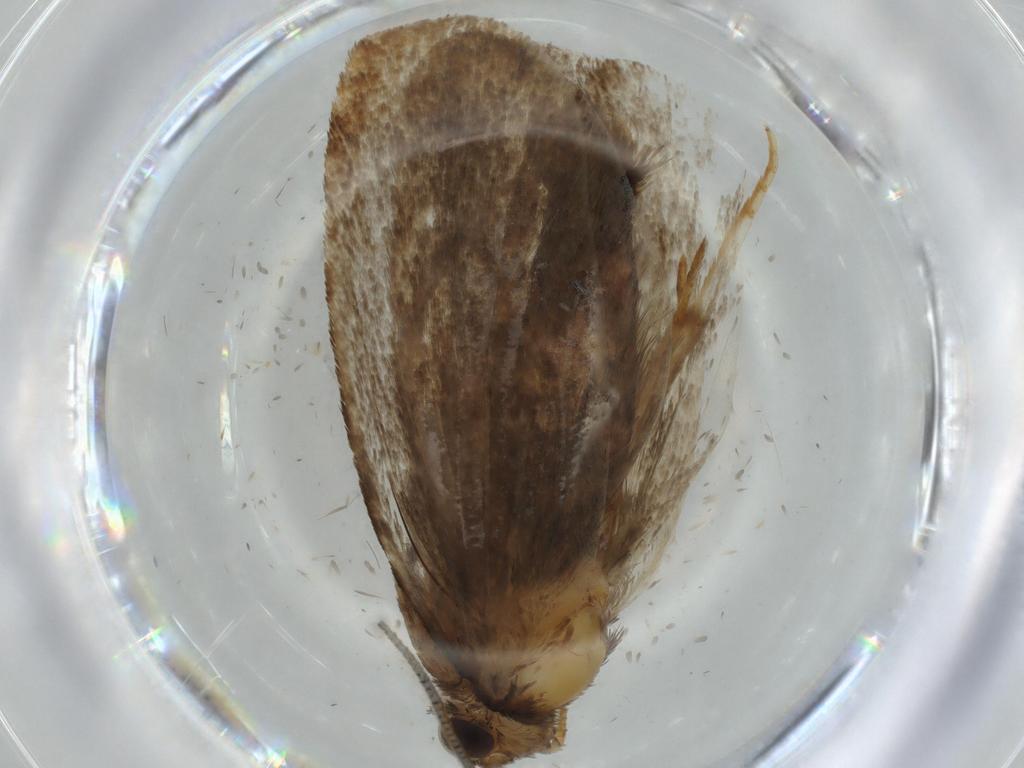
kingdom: Animalia
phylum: Arthropoda
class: Insecta
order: Lepidoptera
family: Tineidae
